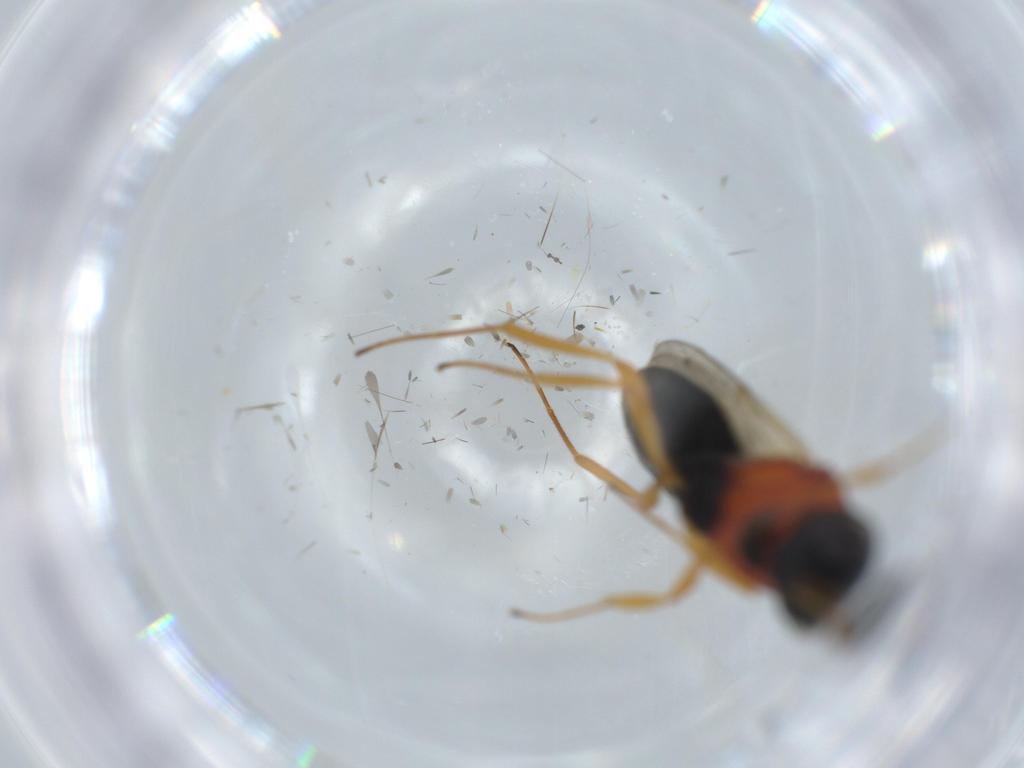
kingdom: Animalia
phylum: Arthropoda
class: Insecta
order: Hymenoptera
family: Scelionidae
